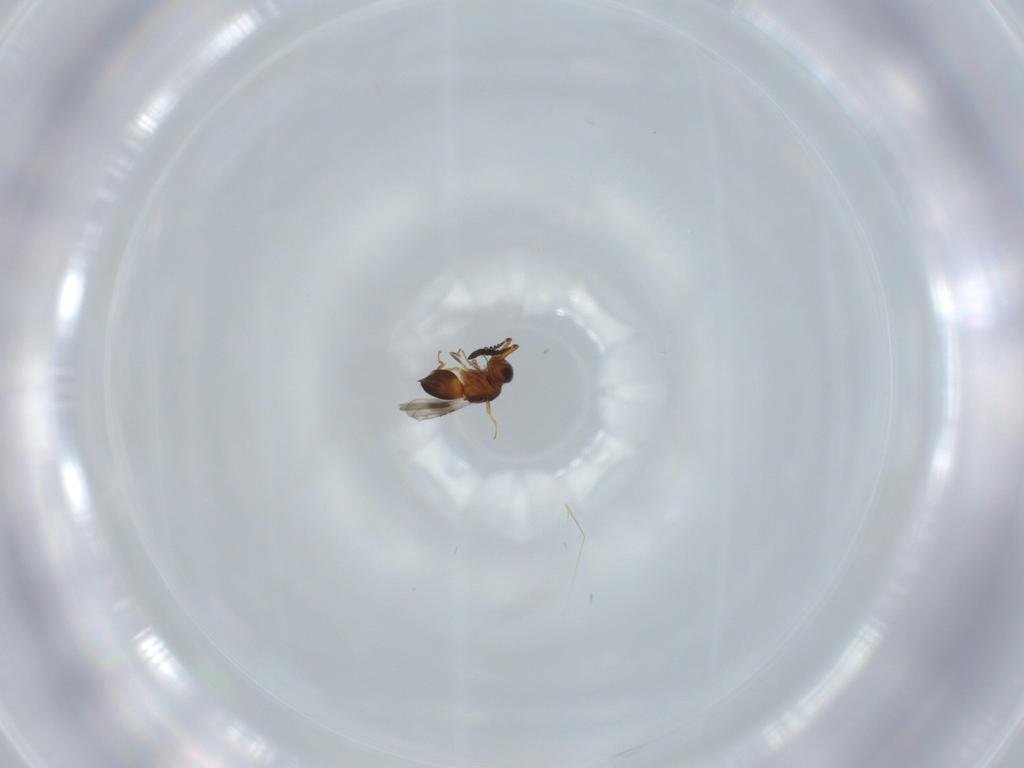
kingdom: Animalia
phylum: Arthropoda
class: Insecta
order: Hymenoptera
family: Ceraphronidae
